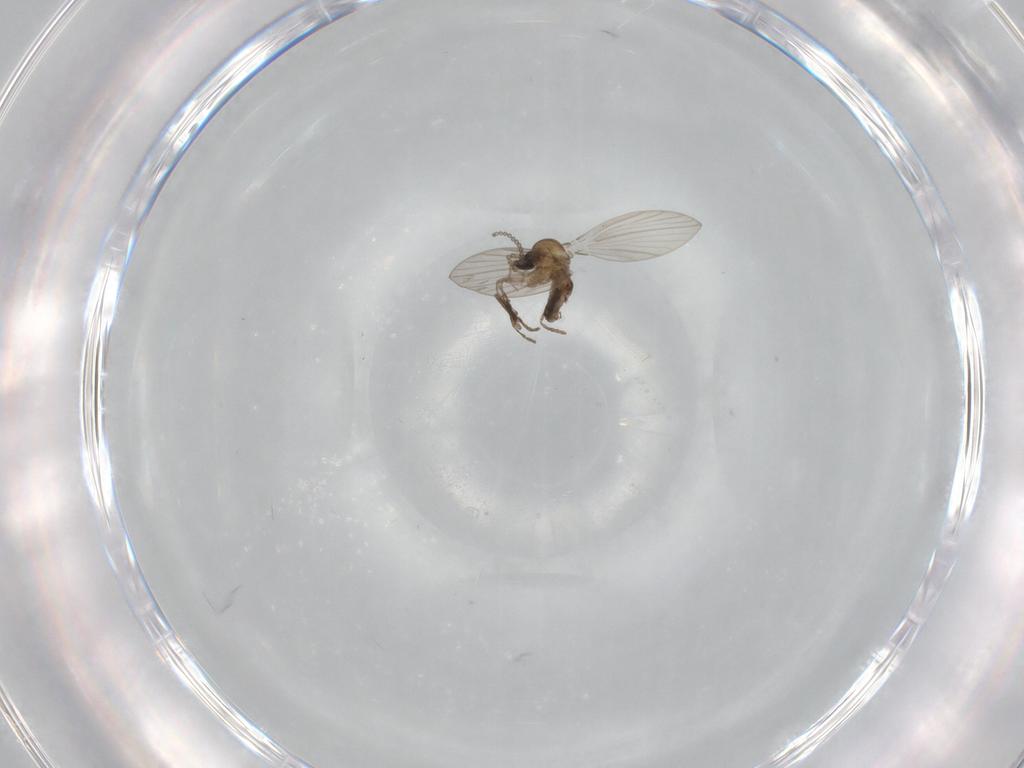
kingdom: Animalia
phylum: Arthropoda
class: Insecta
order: Diptera
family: Psychodidae
